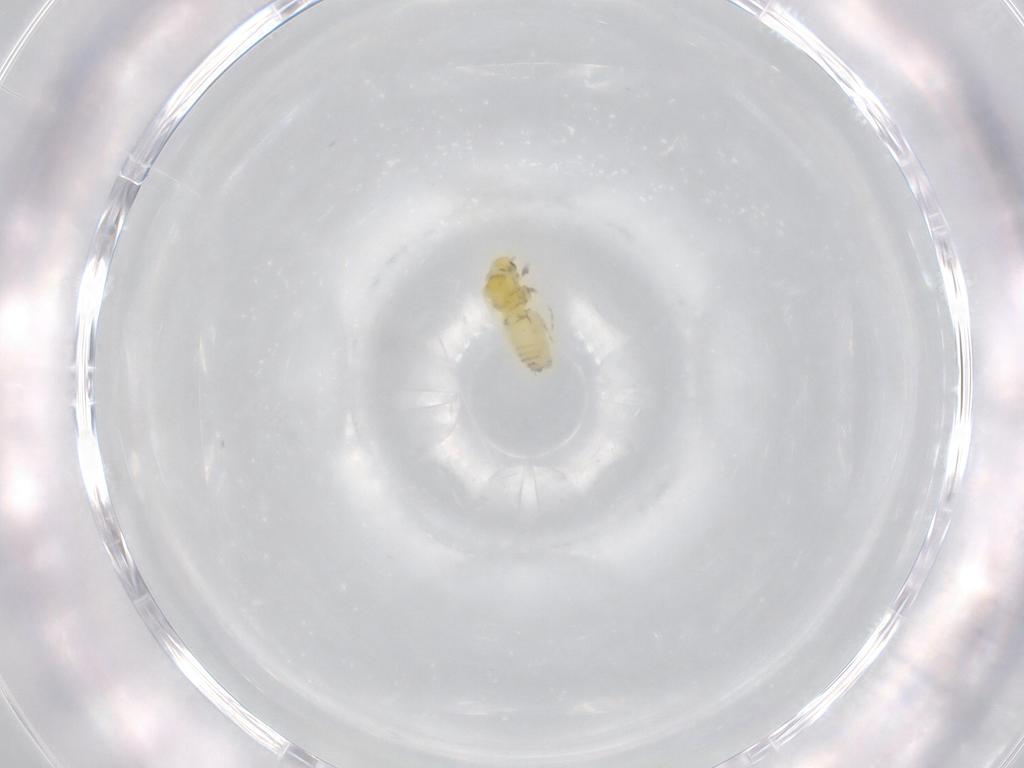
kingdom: Animalia
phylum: Arthropoda
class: Insecta
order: Hemiptera
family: Aleyrodidae
